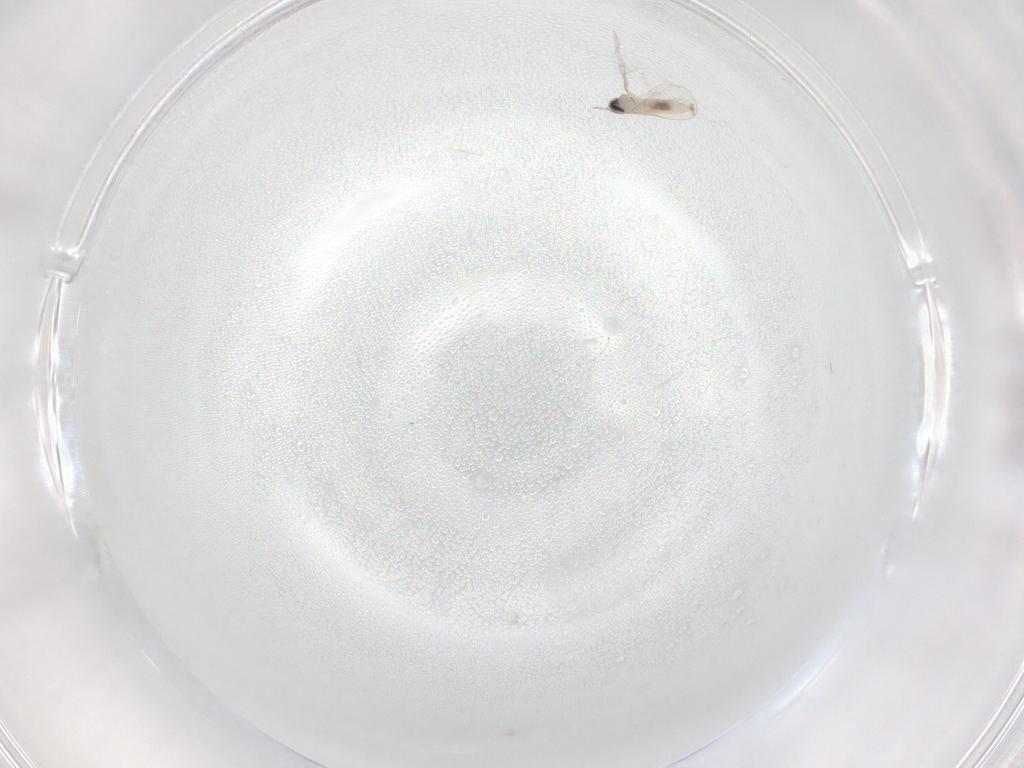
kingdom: Animalia
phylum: Arthropoda
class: Insecta
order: Diptera
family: Cecidomyiidae
